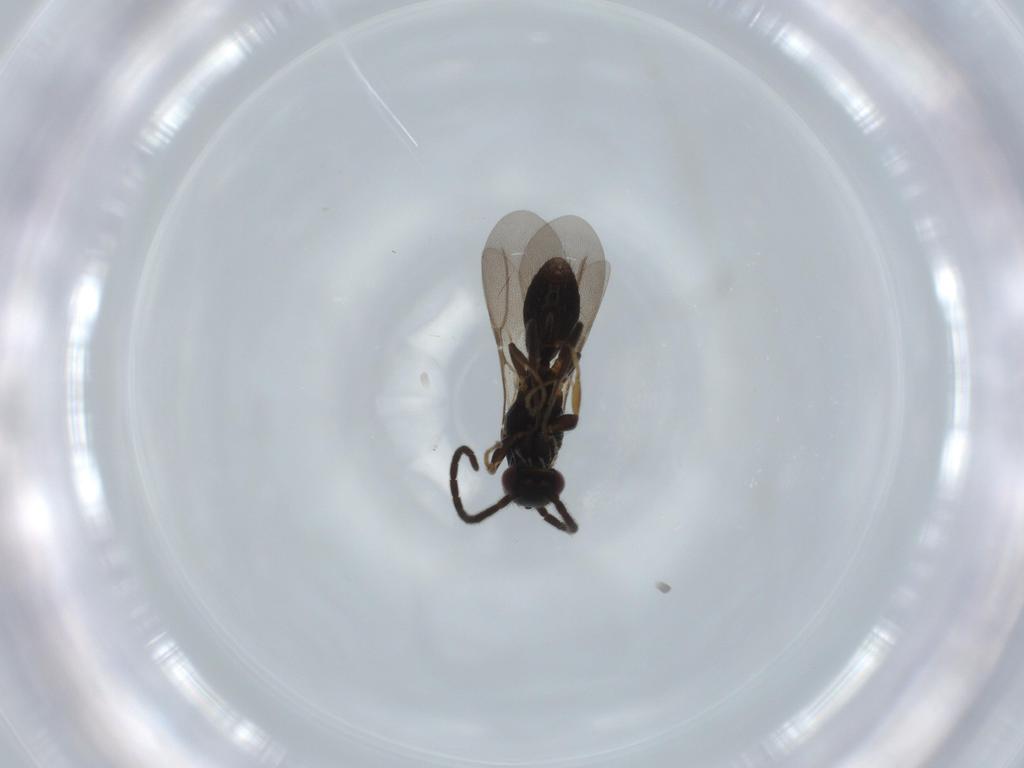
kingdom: Animalia
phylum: Arthropoda
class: Insecta
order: Hymenoptera
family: Bethylidae
